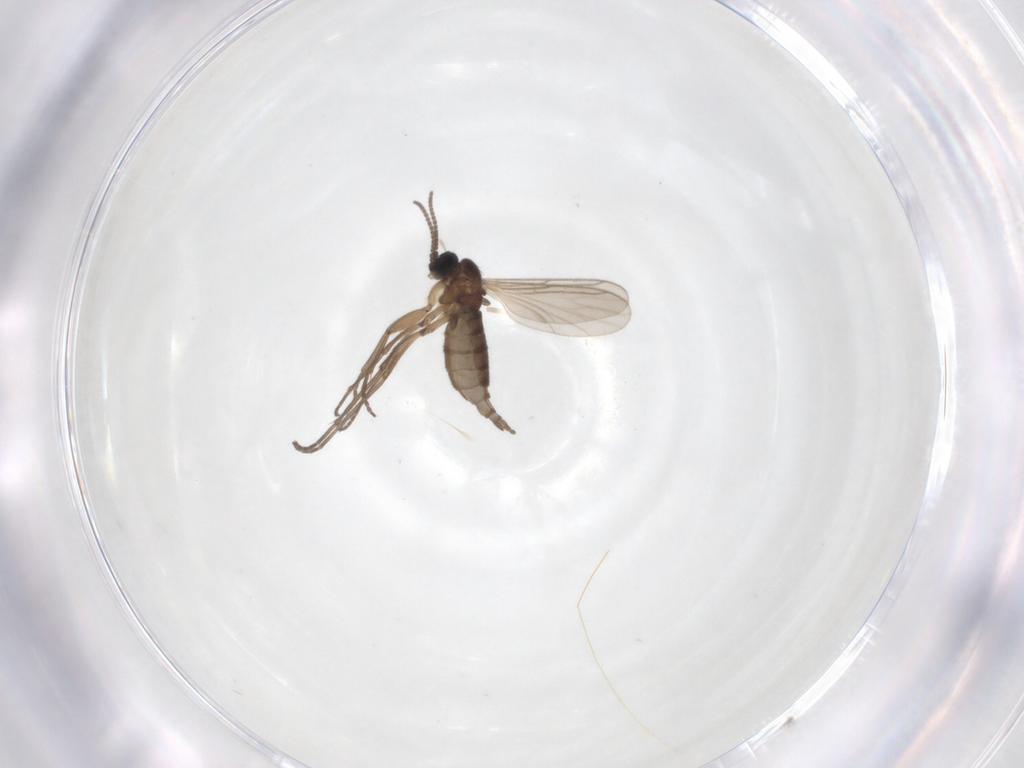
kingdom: Animalia
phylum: Arthropoda
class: Insecta
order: Diptera
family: Sciaridae
